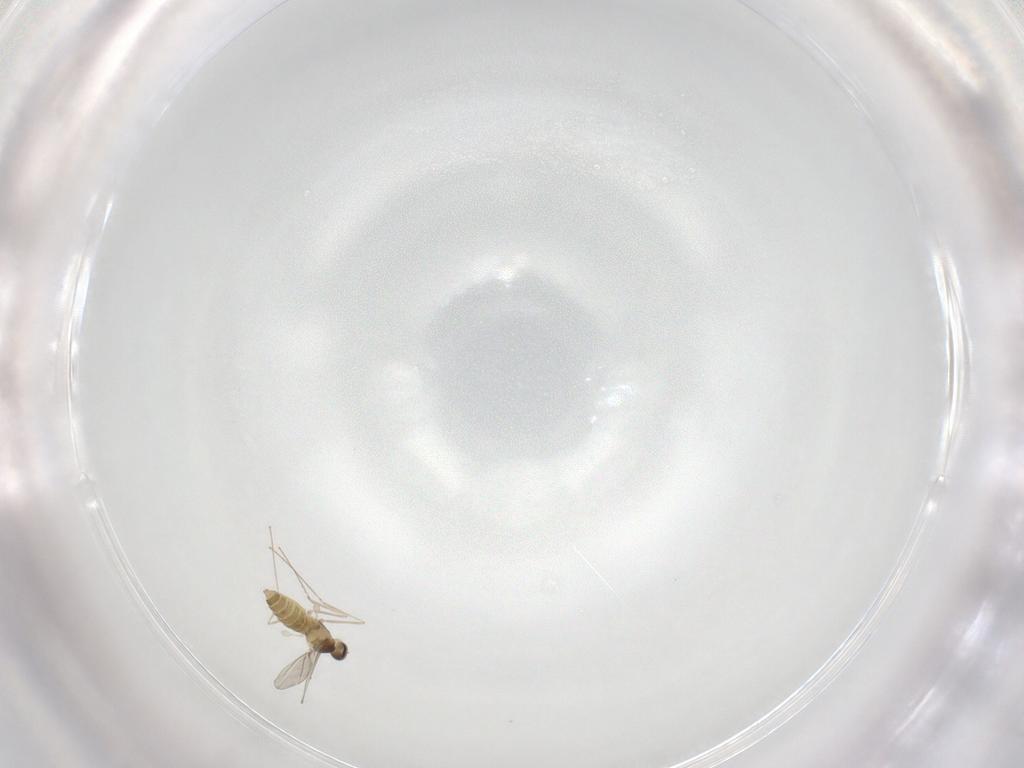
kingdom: Animalia
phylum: Arthropoda
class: Insecta
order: Diptera
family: Cecidomyiidae
